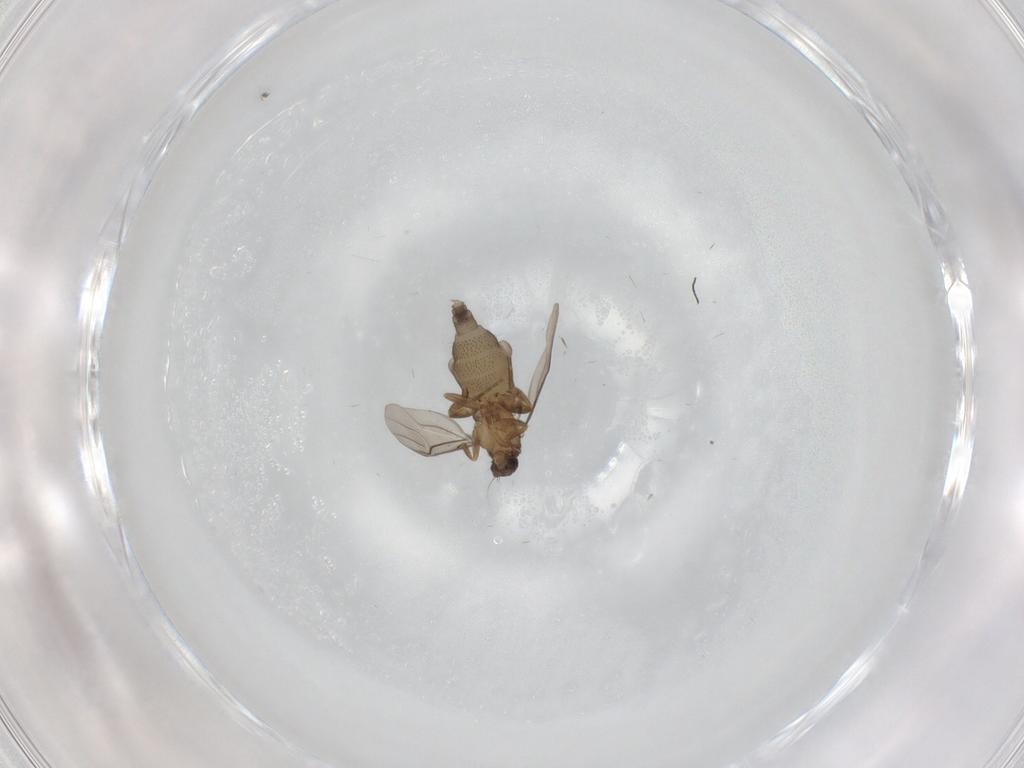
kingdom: Animalia
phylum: Arthropoda
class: Insecta
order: Diptera
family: Phoridae
